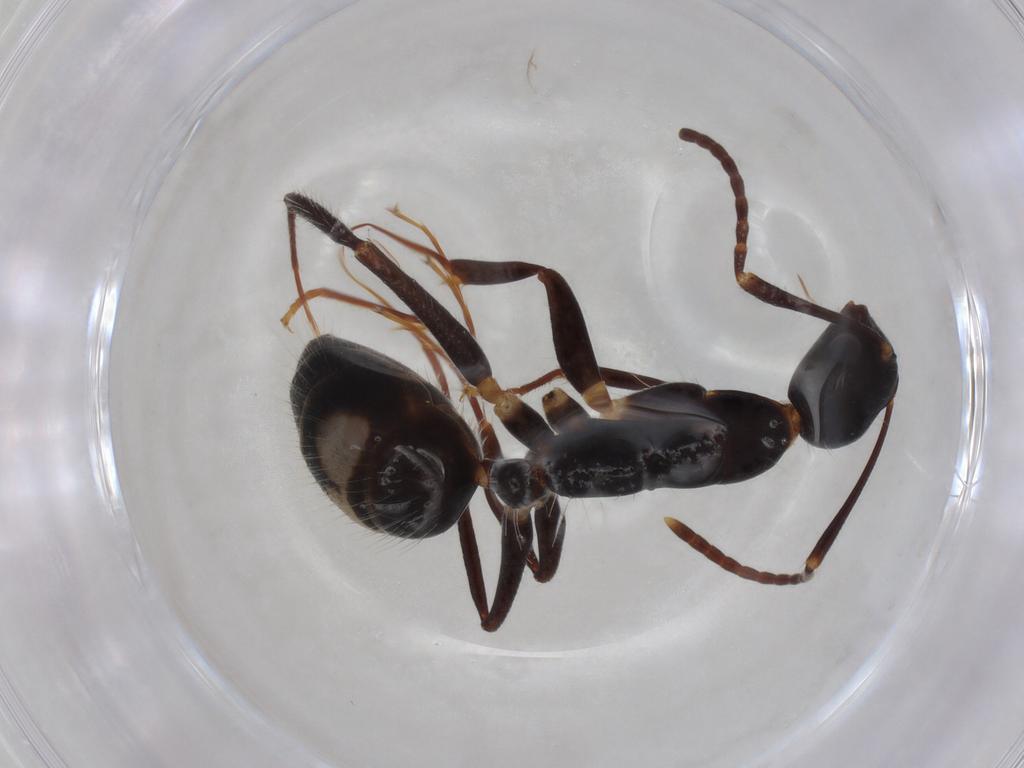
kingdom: Animalia
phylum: Arthropoda
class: Insecta
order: Hymenoptera
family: Formicidae
